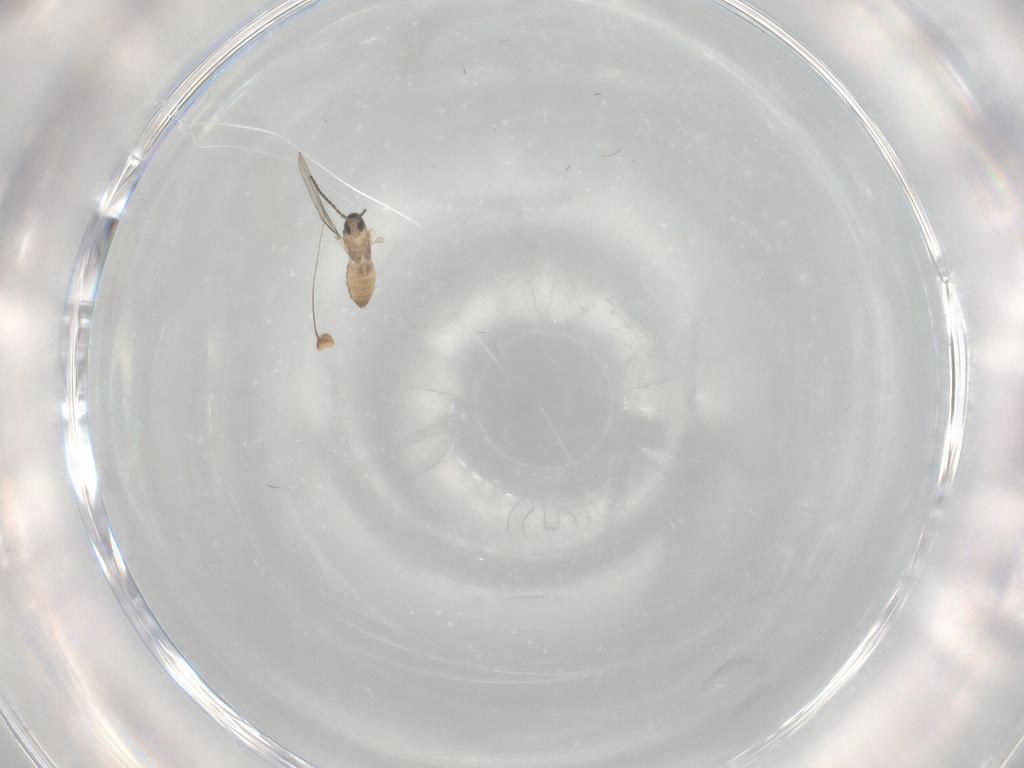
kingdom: Animalia
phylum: Arthropoda
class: Insecta
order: Diptera
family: Cecidomyiidae
